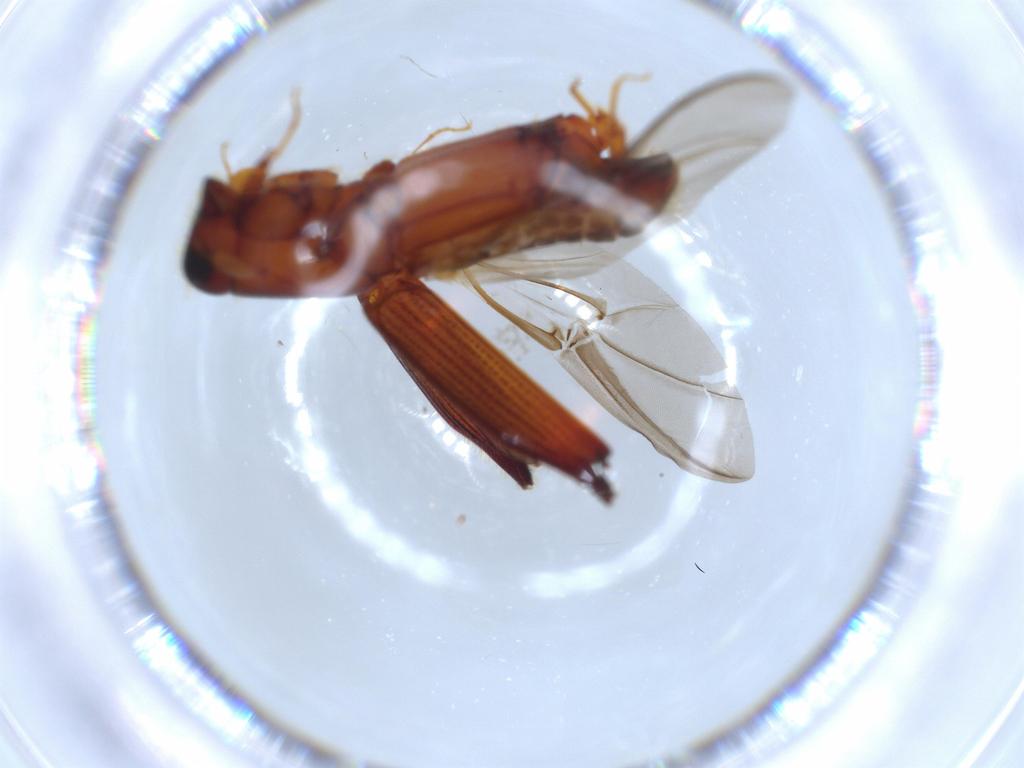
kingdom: Animalia
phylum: Arthropoda
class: Insecta
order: Coleoptera
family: Curculionidae
